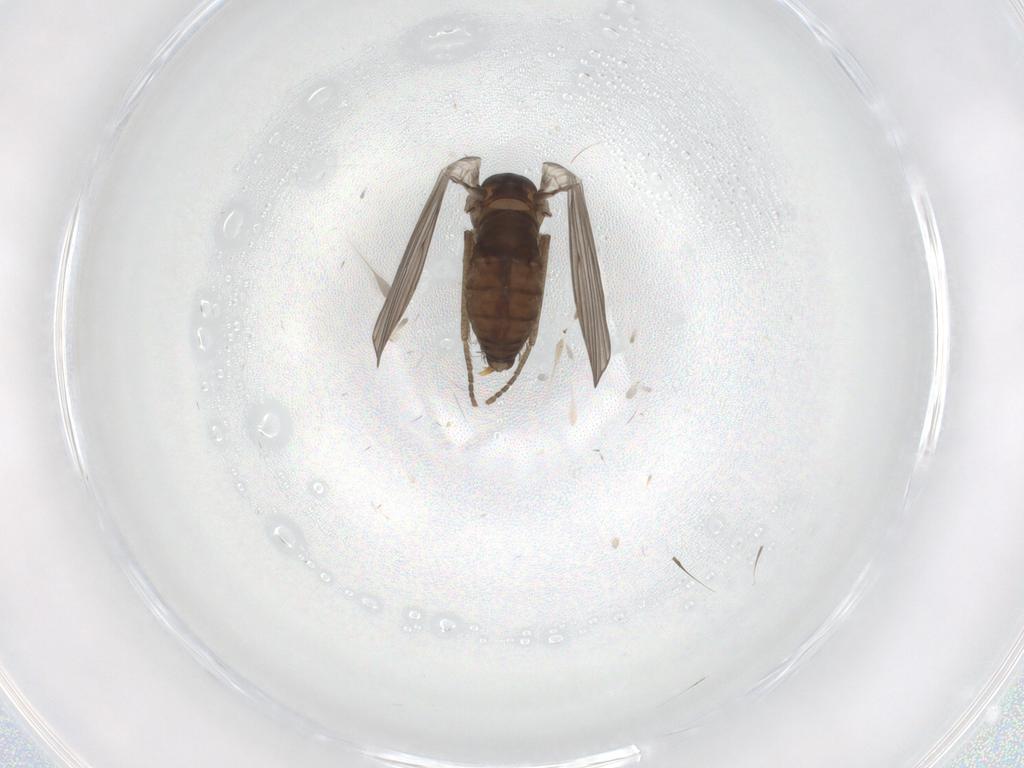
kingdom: Animalia
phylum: Arthropoda
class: Insecta
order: Diptera
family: Psychodidae
